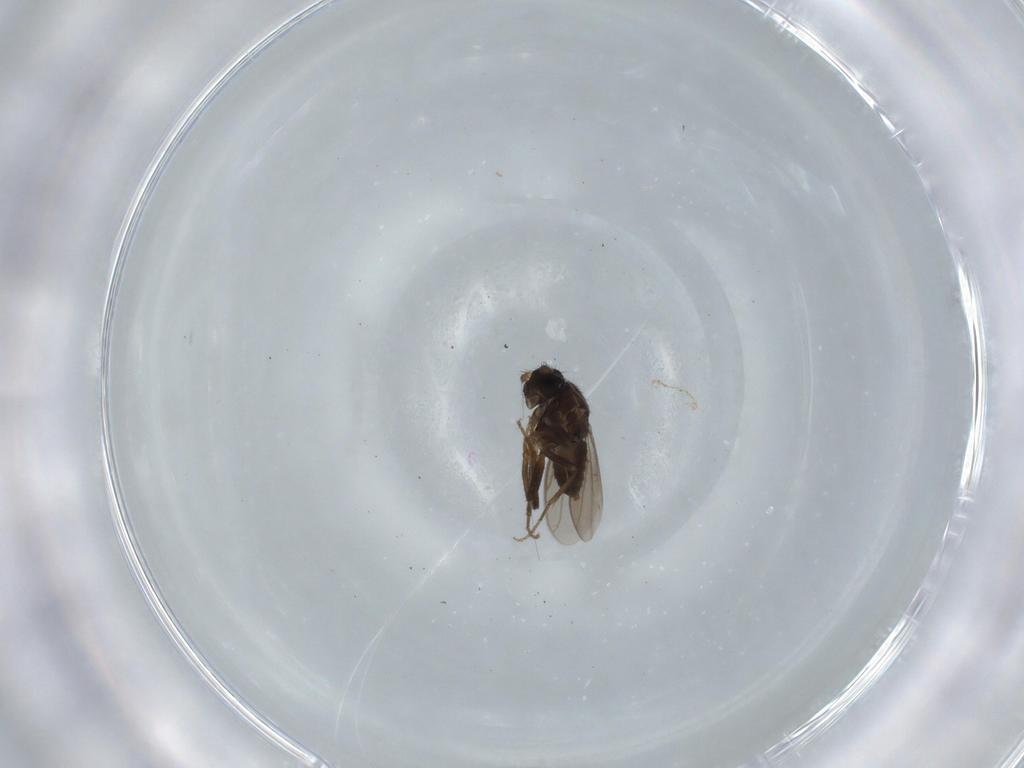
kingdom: Animalia
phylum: Arthropoda
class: Insecta
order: Diptera
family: Sphaeroceridae
